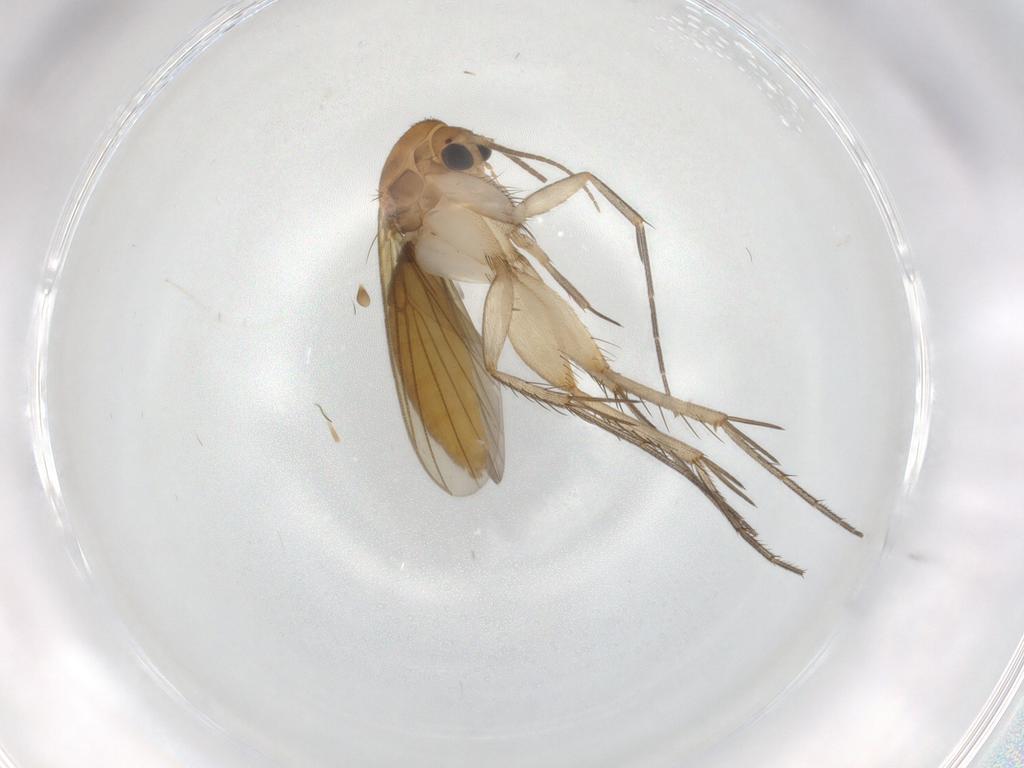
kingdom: Animalia
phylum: Arthropoda
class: Insecta
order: Diptera
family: Mycetophilidae
